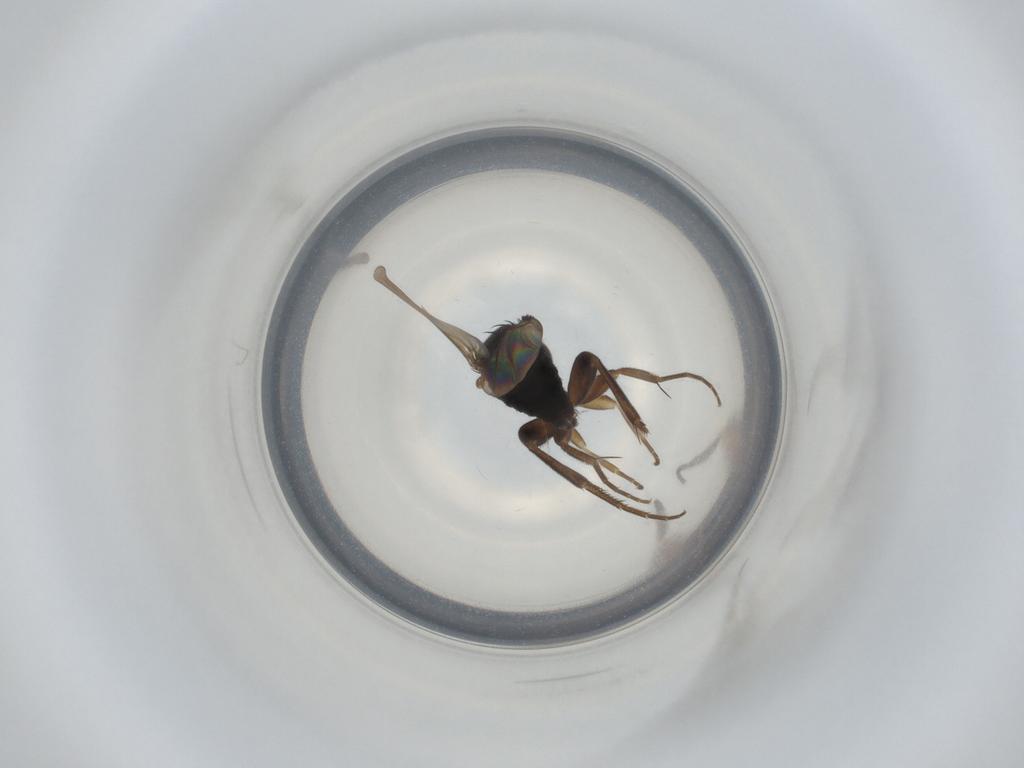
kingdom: Animalia
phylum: Arthropoda
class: Insecta
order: Diptera
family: Phoridae
